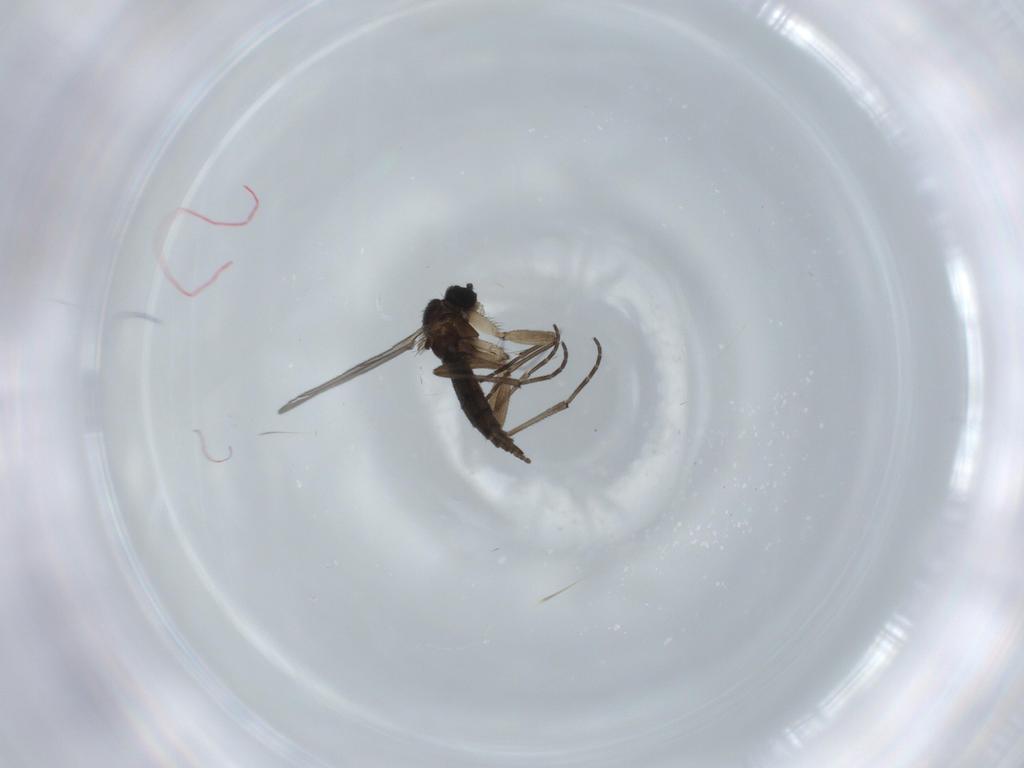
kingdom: Animalia
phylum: Arthropoda
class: Insecta
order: Diptera
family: Sciaridae
